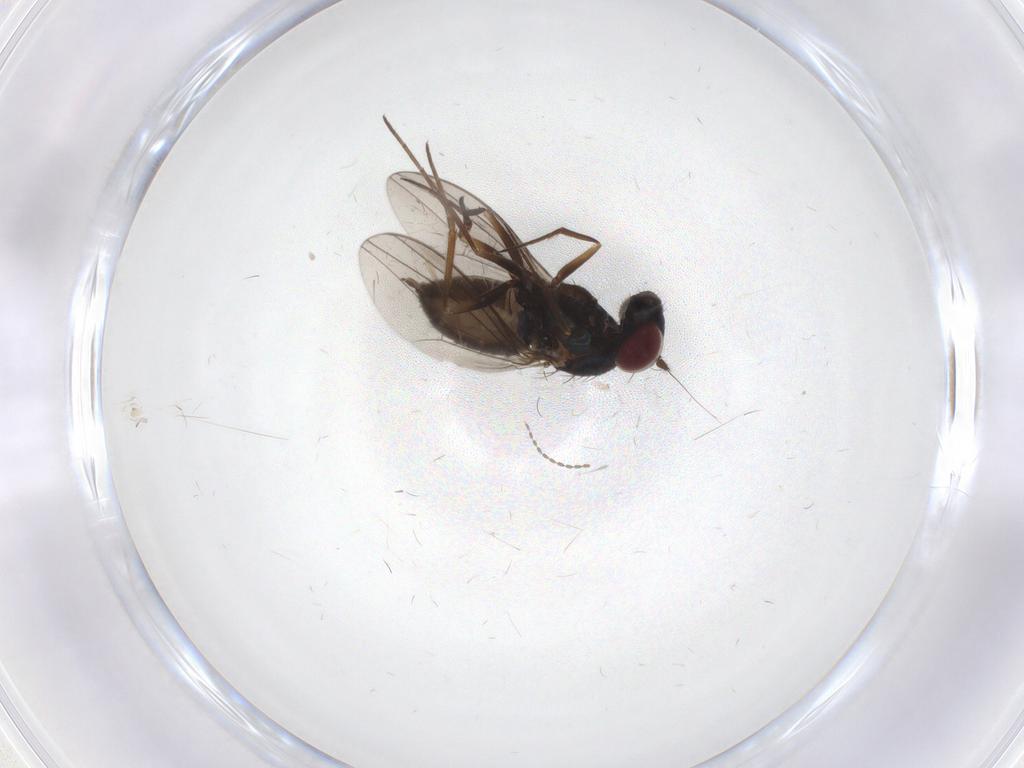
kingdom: Animalia
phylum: Arthropoda
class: Insecta
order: Diptera
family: Dolichopodidae
